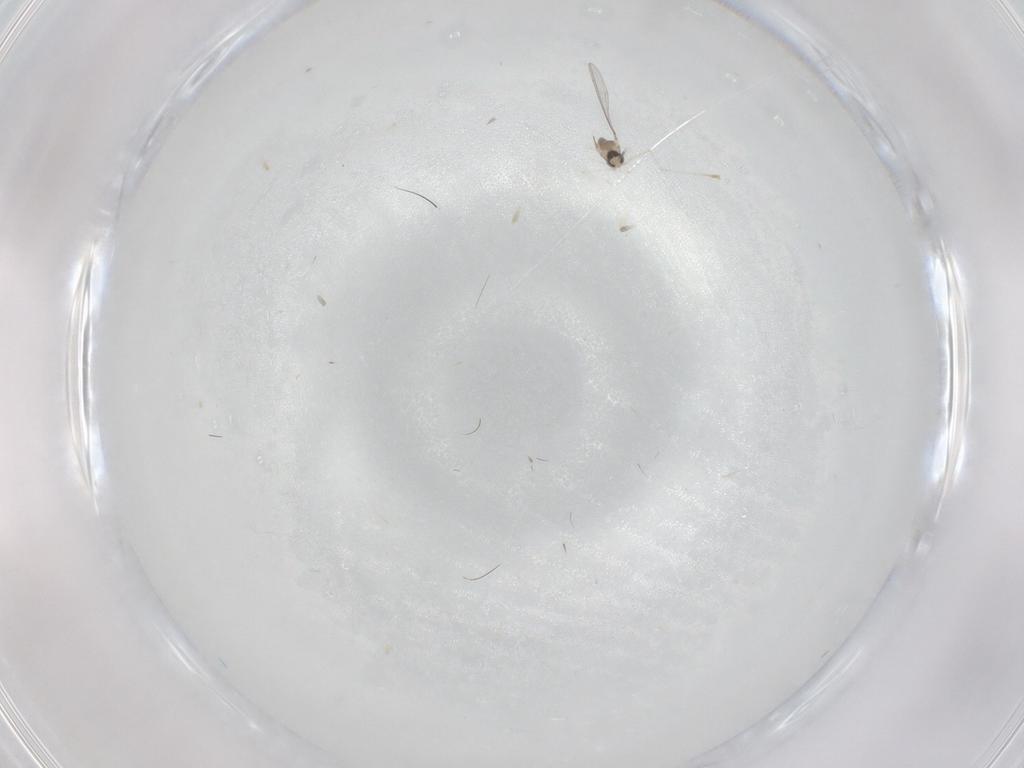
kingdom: Animalia
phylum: Arthropoda
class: Insecta
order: Diptera
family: Cecidomyiidae
